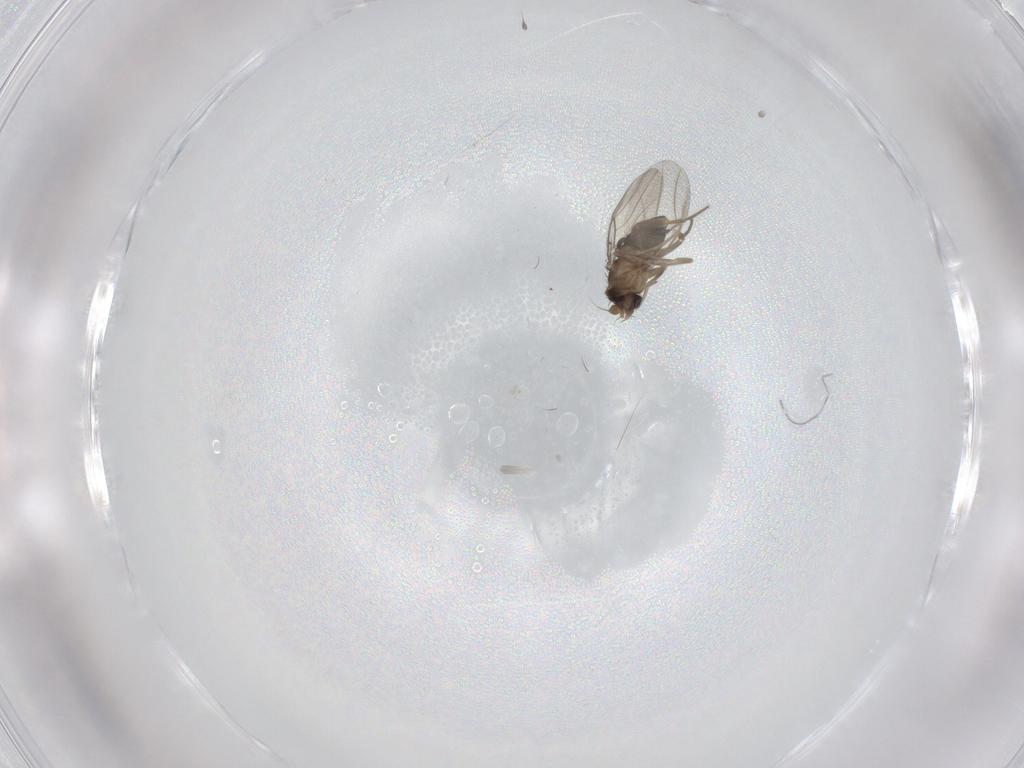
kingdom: Animalia
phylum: Arthropoda
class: Insecta
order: Diptera
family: Phoridae
